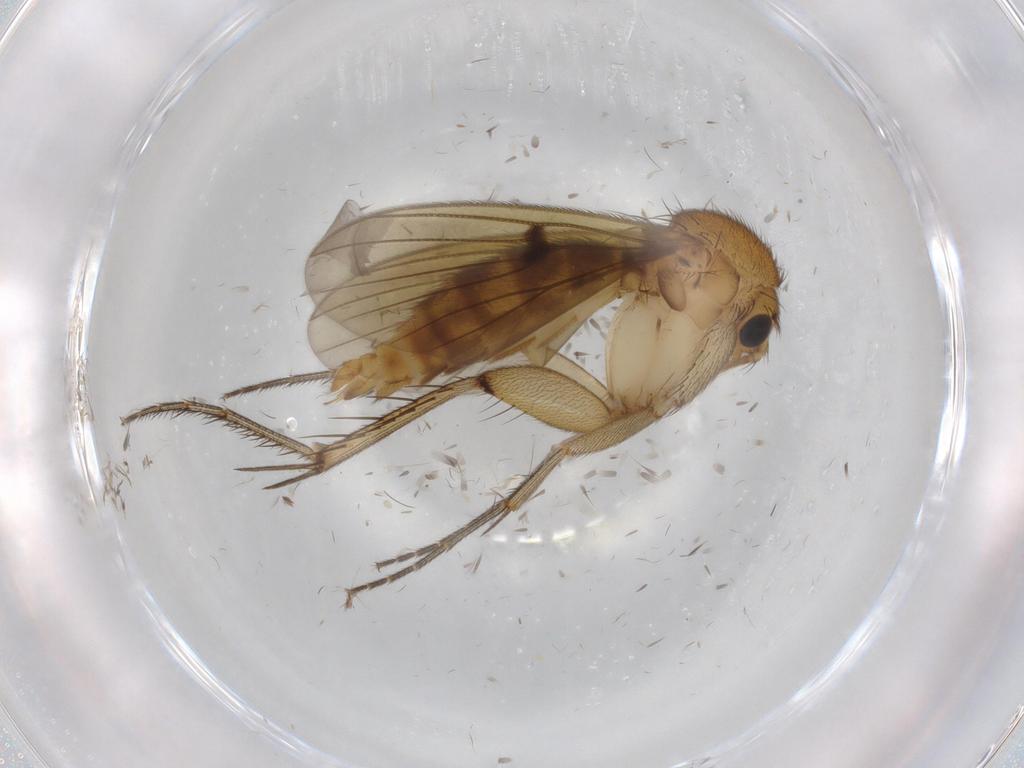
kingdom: Animalia
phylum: Arthropoda
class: Insecta
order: Diptera
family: Mycetophilidae
